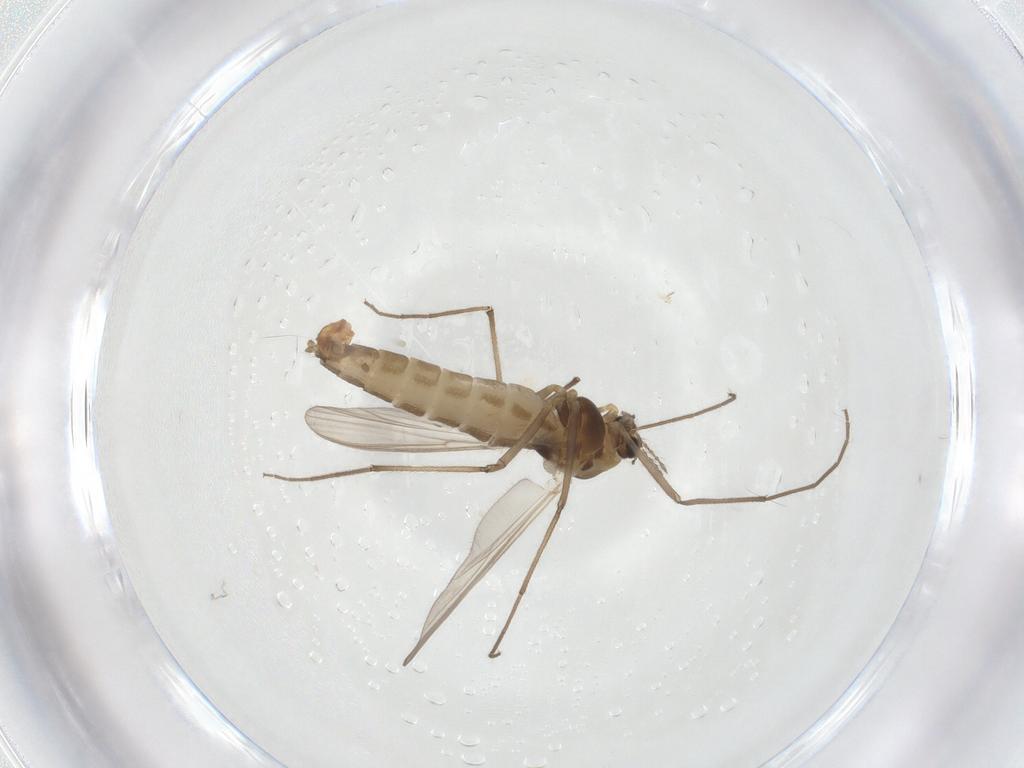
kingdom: Animalia
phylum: Arthropoda
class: Insecta
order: Diptera
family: Chironomidae
